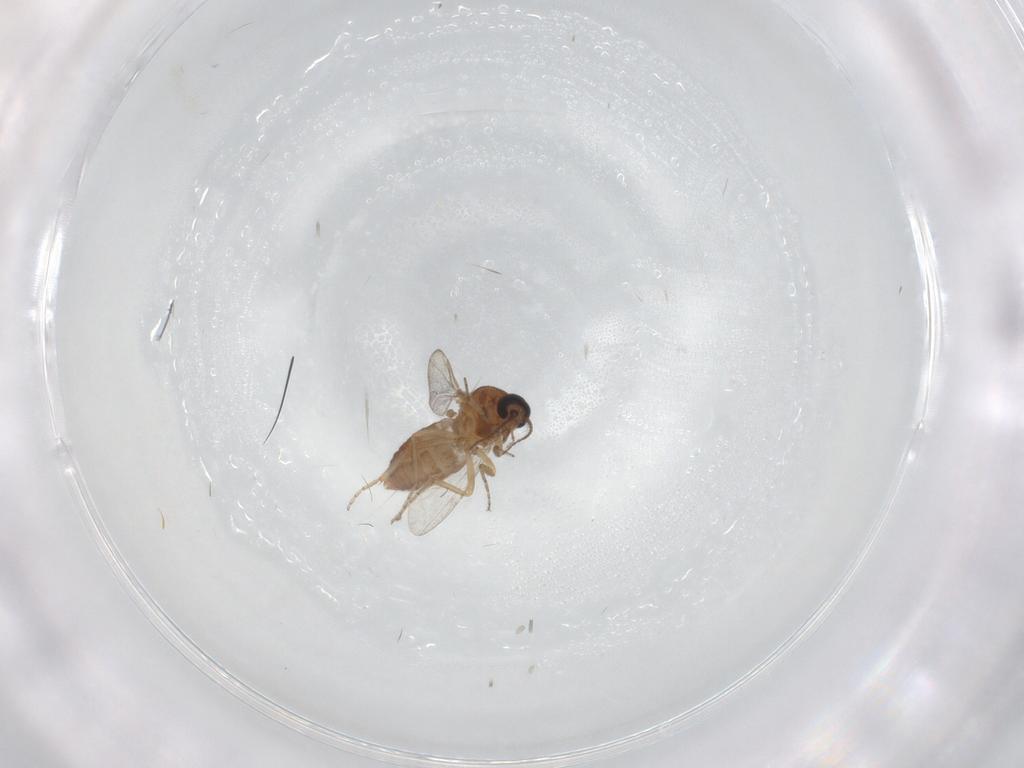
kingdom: Animalia
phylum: Arthropoda
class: Insecta
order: Diptera
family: Ceratopogonidae
